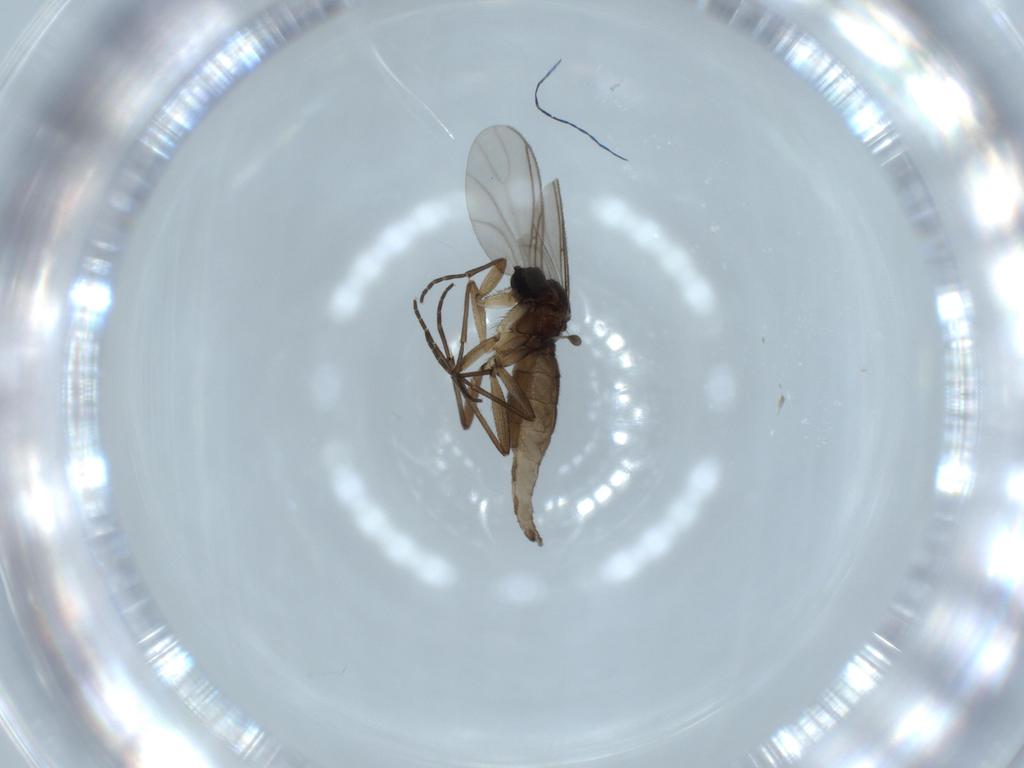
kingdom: Animalia
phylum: Arthropoda
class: Insecta
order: Diptera
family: Sciaridae
